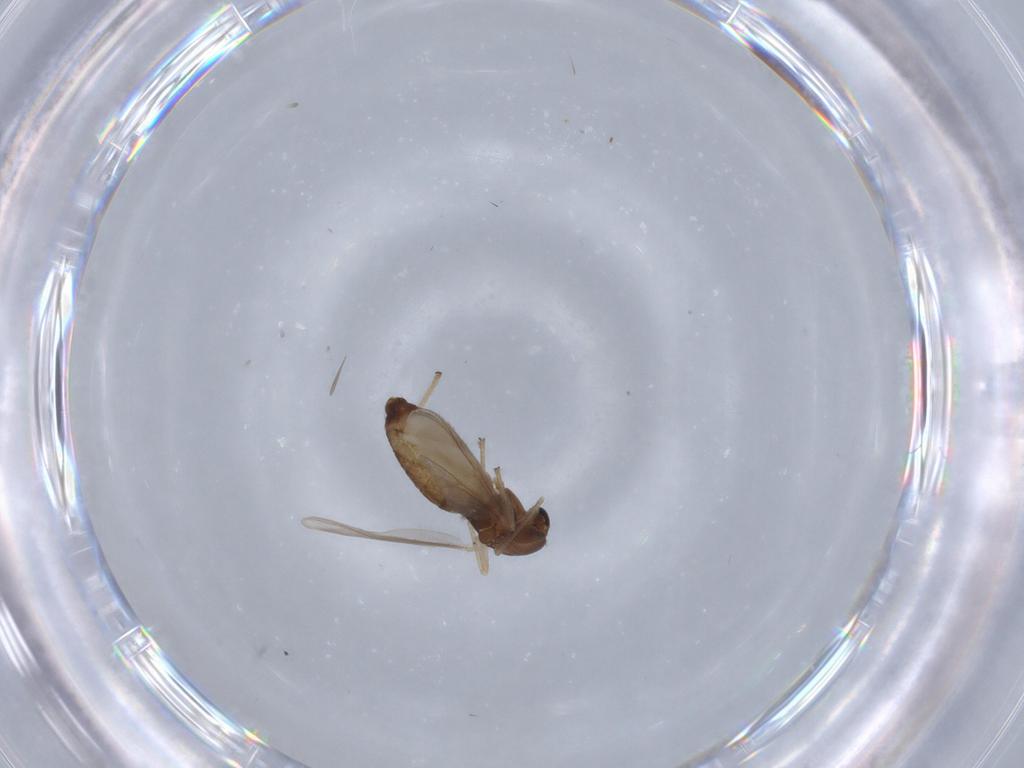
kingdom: Animalia
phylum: Arthropoda
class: Insecta
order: Diptera
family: Chironomidae
